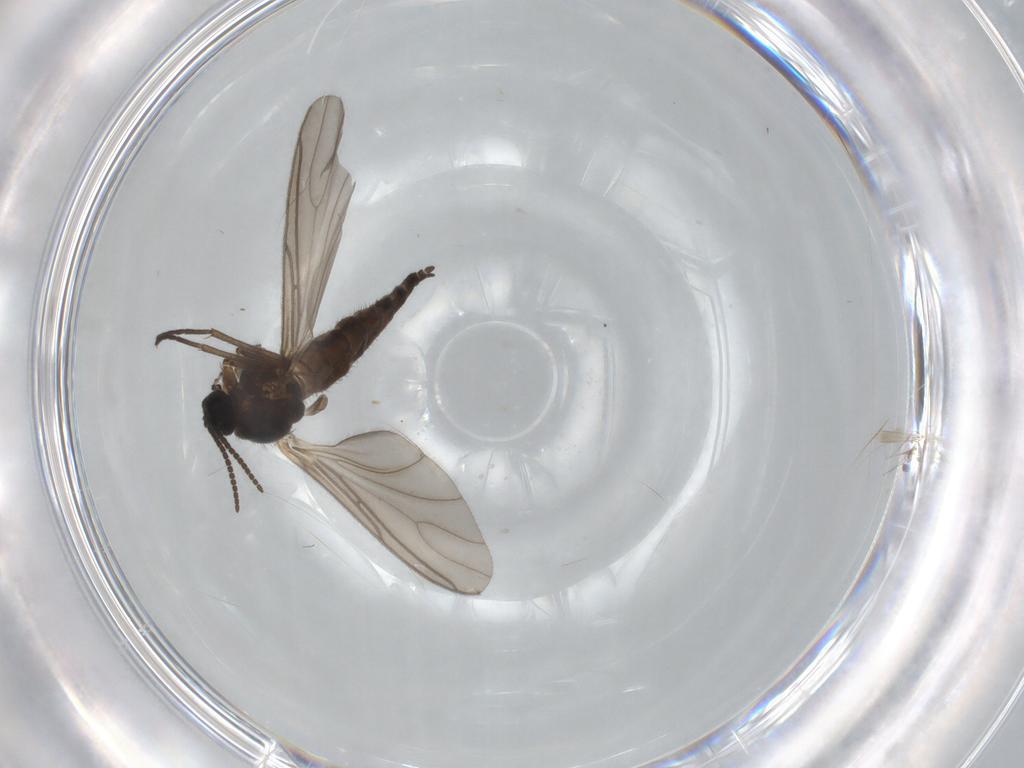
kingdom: Animalia
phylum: Arthropoda
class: Insecta
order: Diptera
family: Sciaridae
